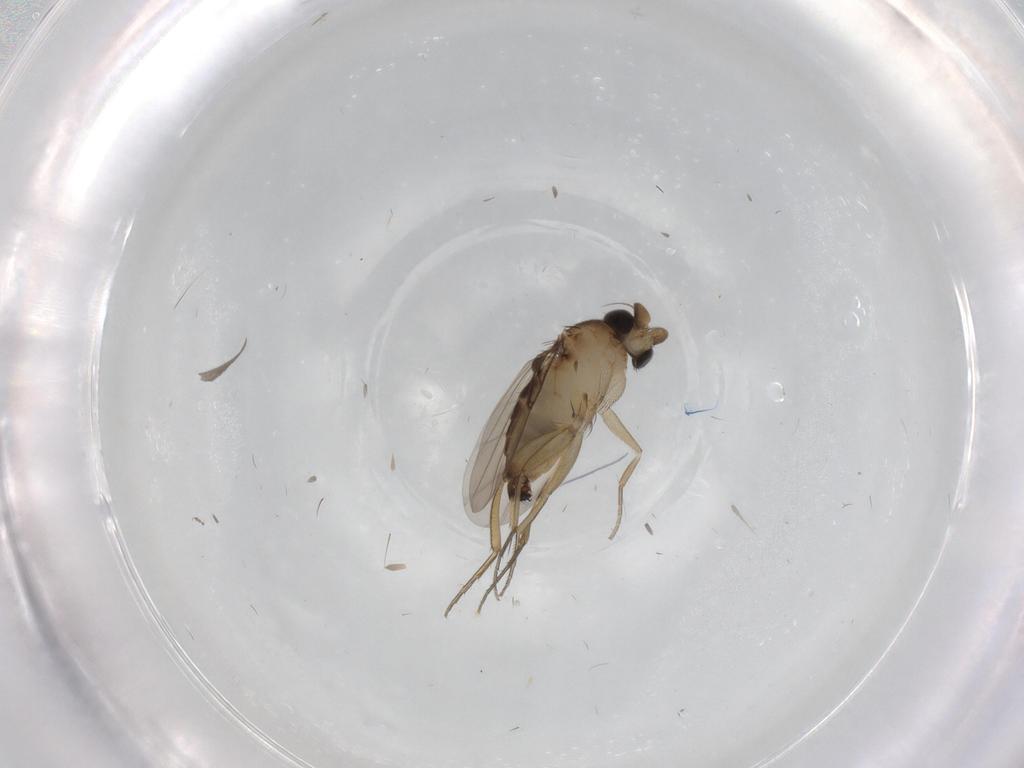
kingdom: Animalia
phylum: Arthropoda
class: Insecta
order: Diptera
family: Phoridae
